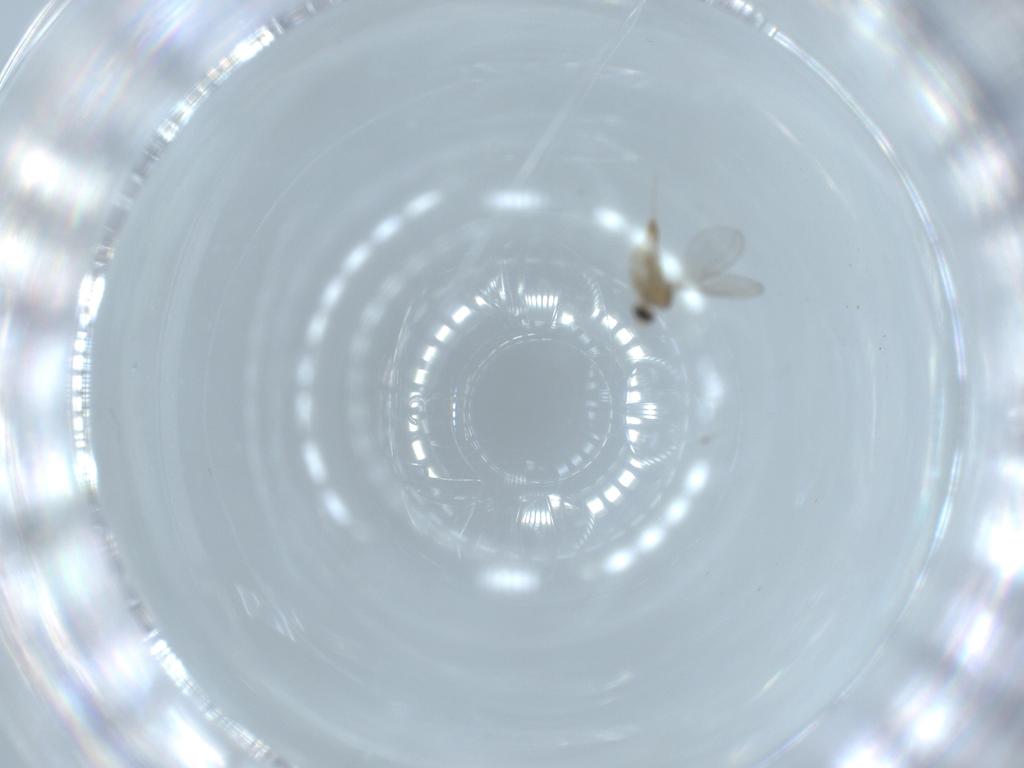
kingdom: Animalia
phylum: Arthropoda
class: Insecta
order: Diptera
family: Cecidomyiidae
